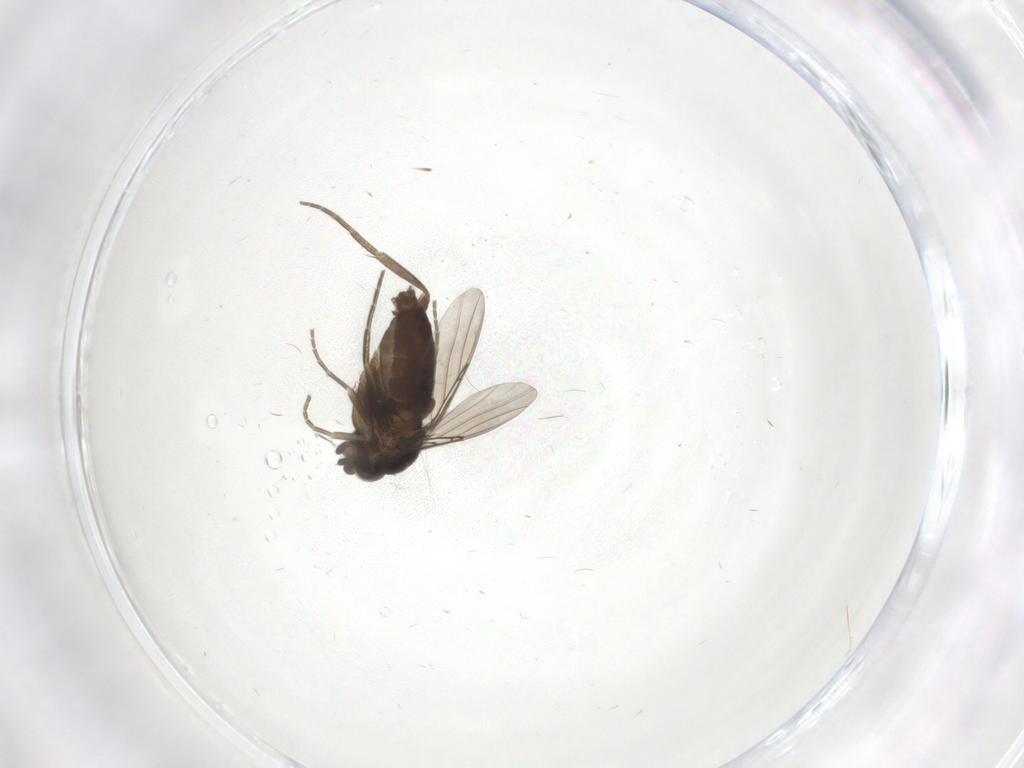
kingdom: Animalia
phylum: Arthropoda
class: Insecta
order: Diptera
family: Phoridae
